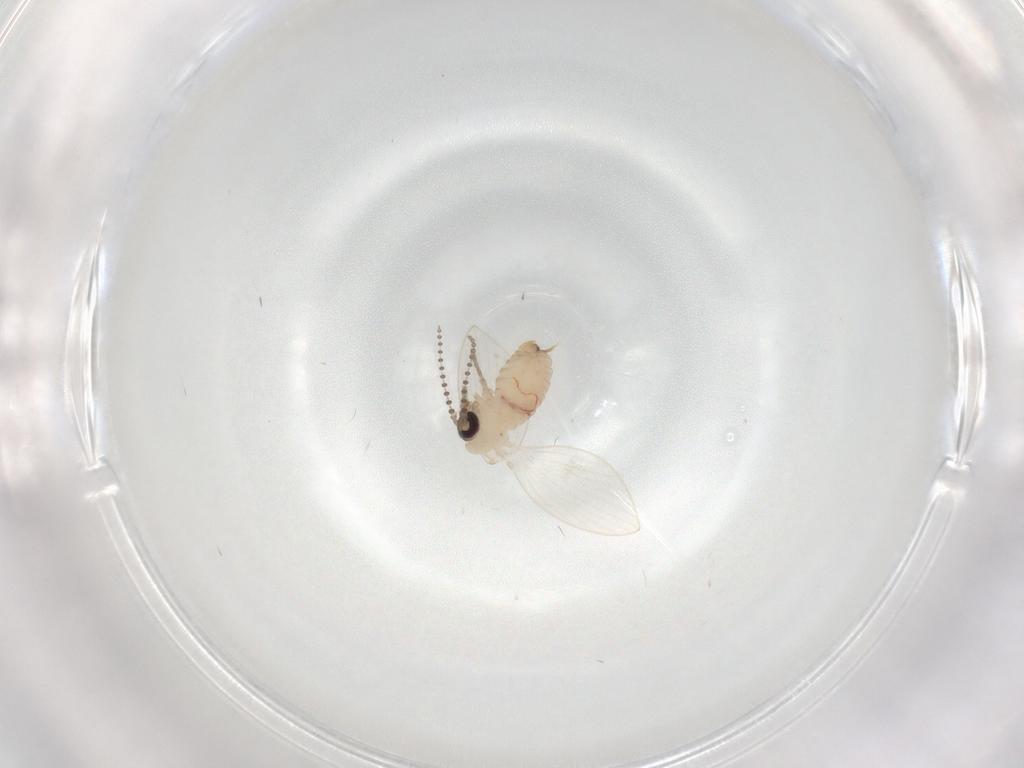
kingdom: Animalia
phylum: Arthropoda
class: Insecta
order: Diptera
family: Psychodidae
